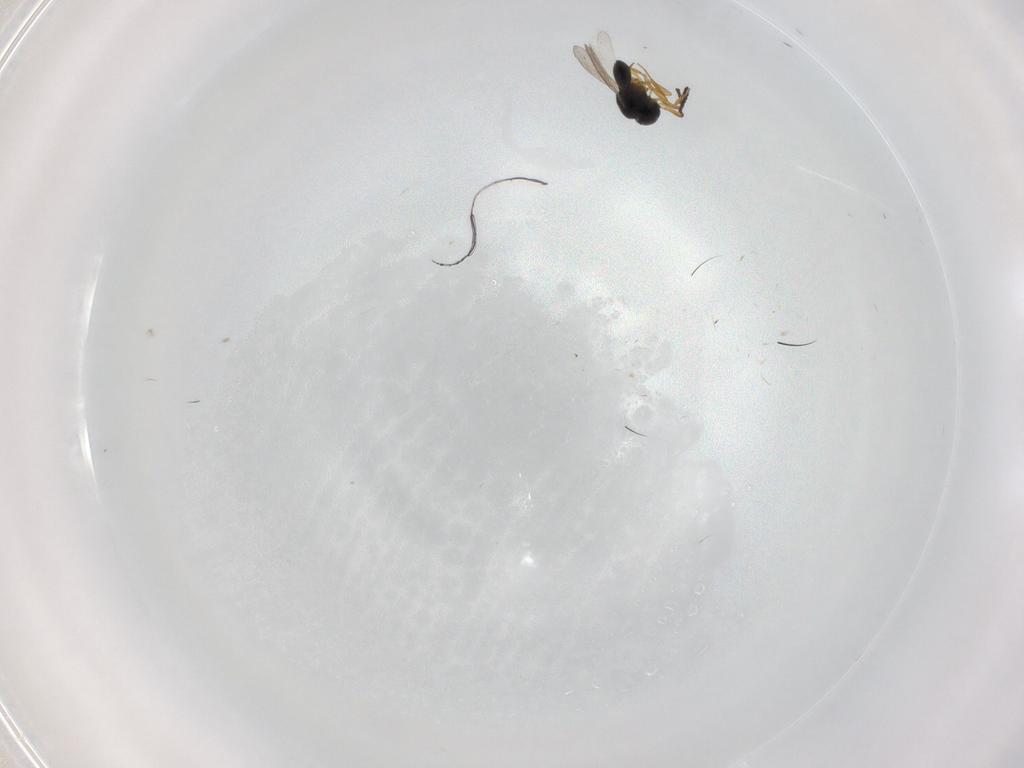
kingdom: Animalia
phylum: Arthropoda
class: Insecta
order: Hymenoptera
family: Scelionidae
